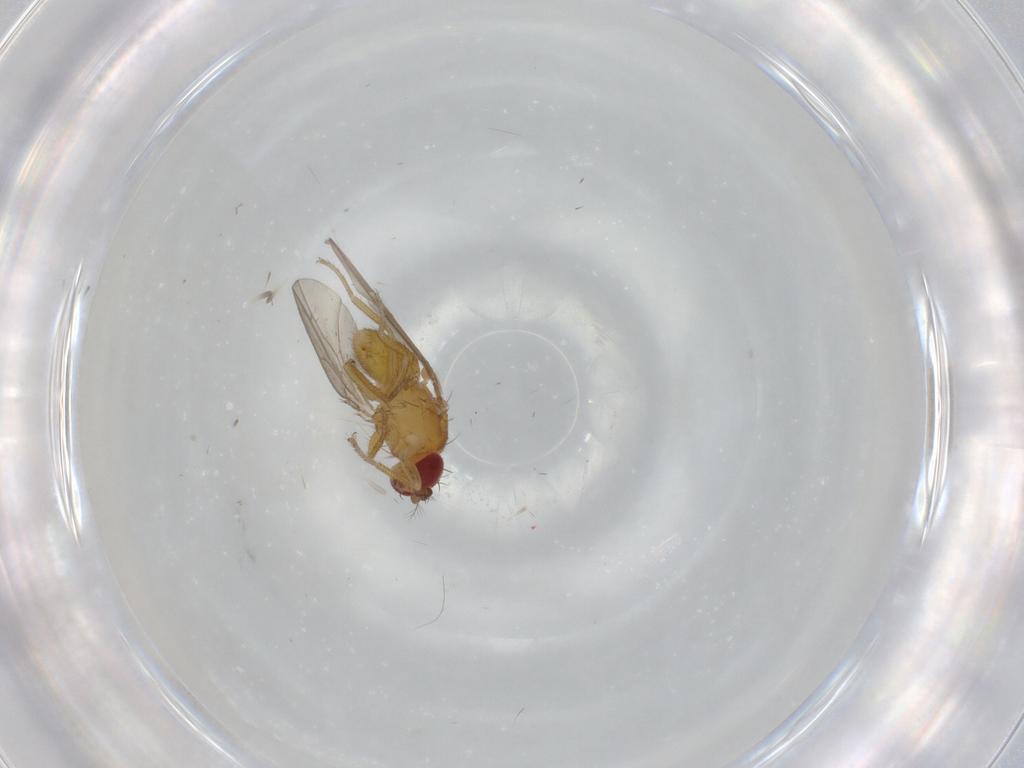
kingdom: Animalia
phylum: Arthropoda
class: Insecta
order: Diptera
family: Drosophilidae
